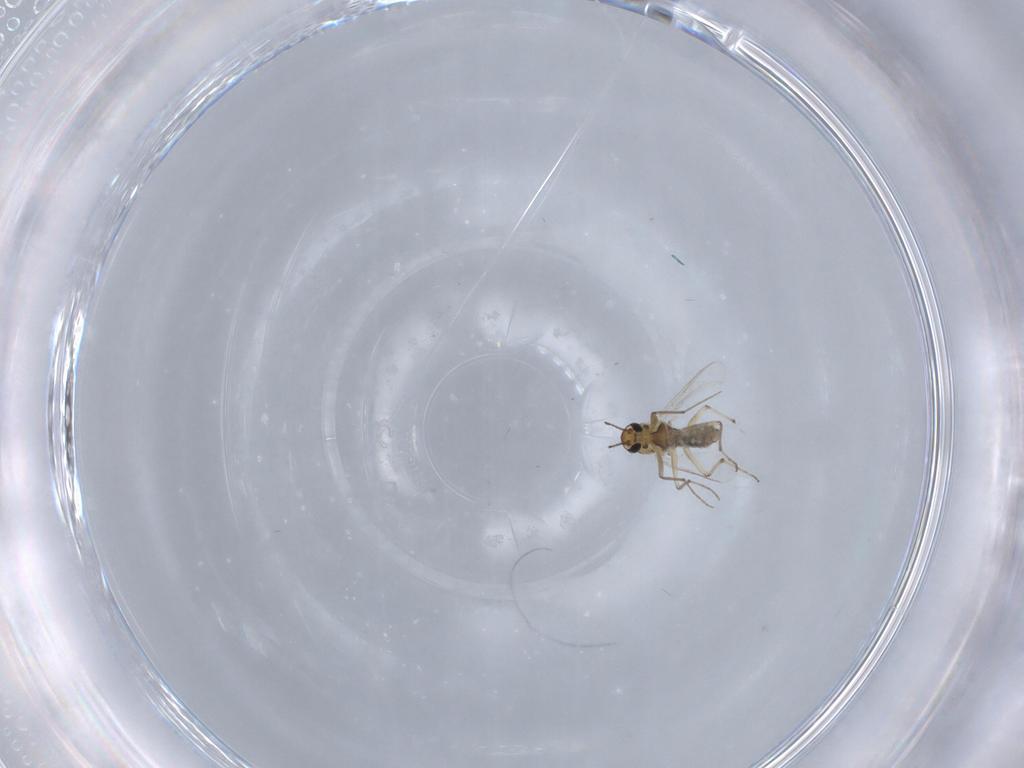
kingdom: Animalia
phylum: Arthropoda
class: Insecta
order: Diptera
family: Chironomidae
